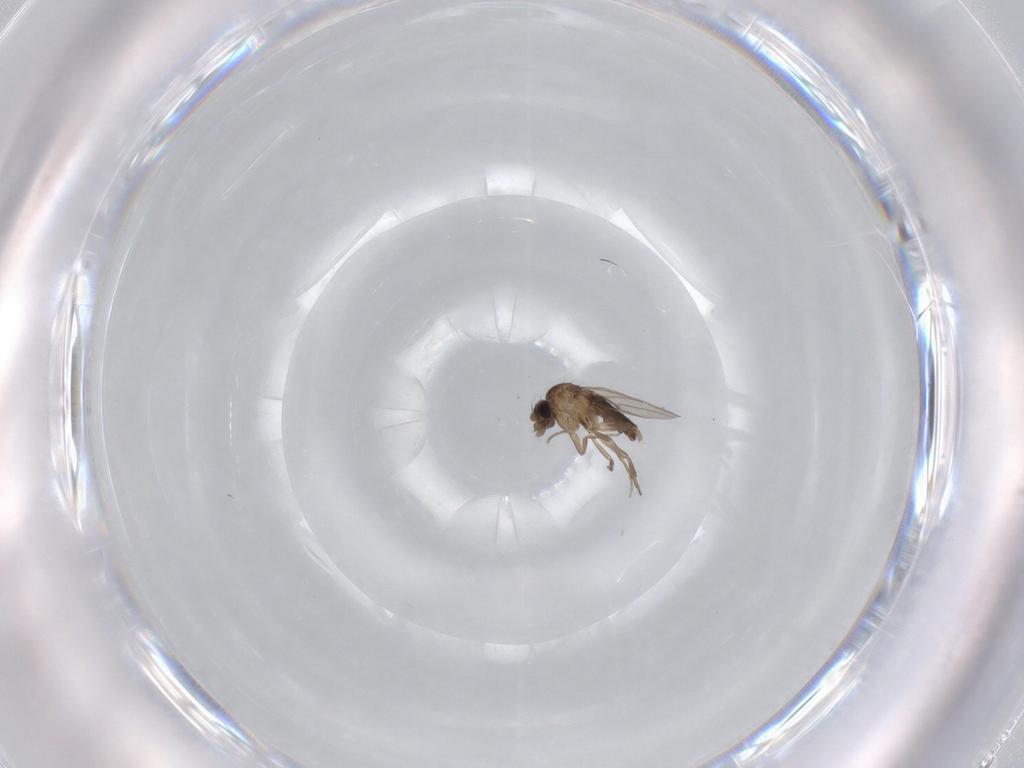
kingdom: Animalia
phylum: Arthropoda
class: Insecta
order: Diptera
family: Phoridae
